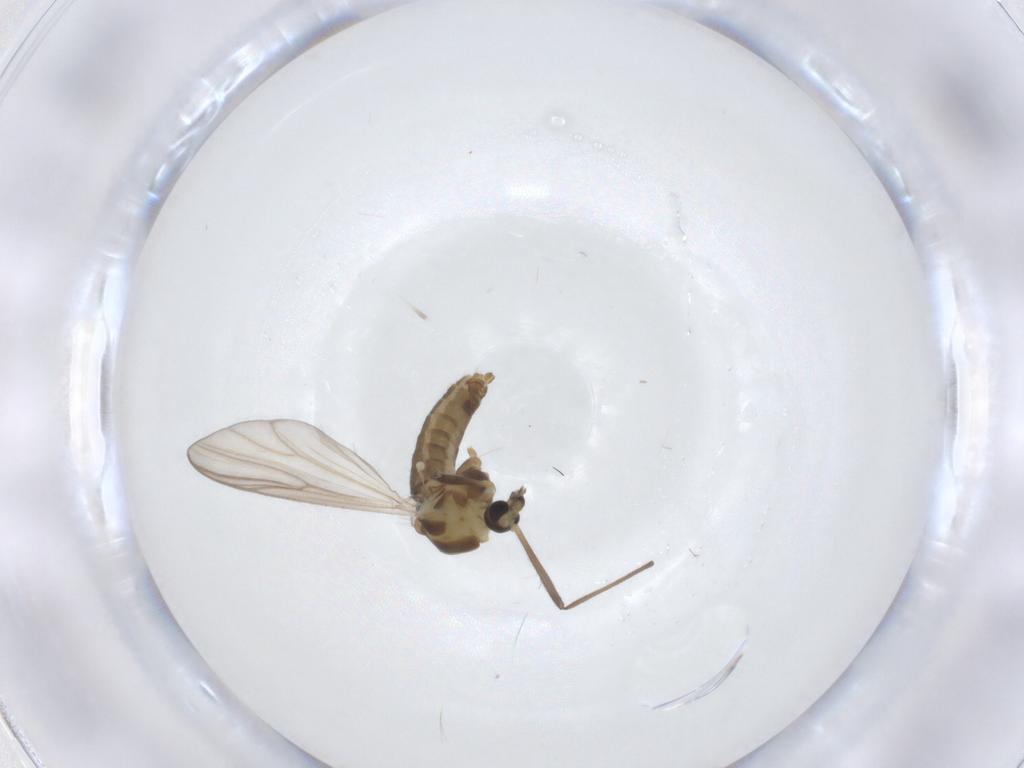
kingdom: Animalia
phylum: Arthropoda
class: Insecta
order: Diptera
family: Chironomidae
